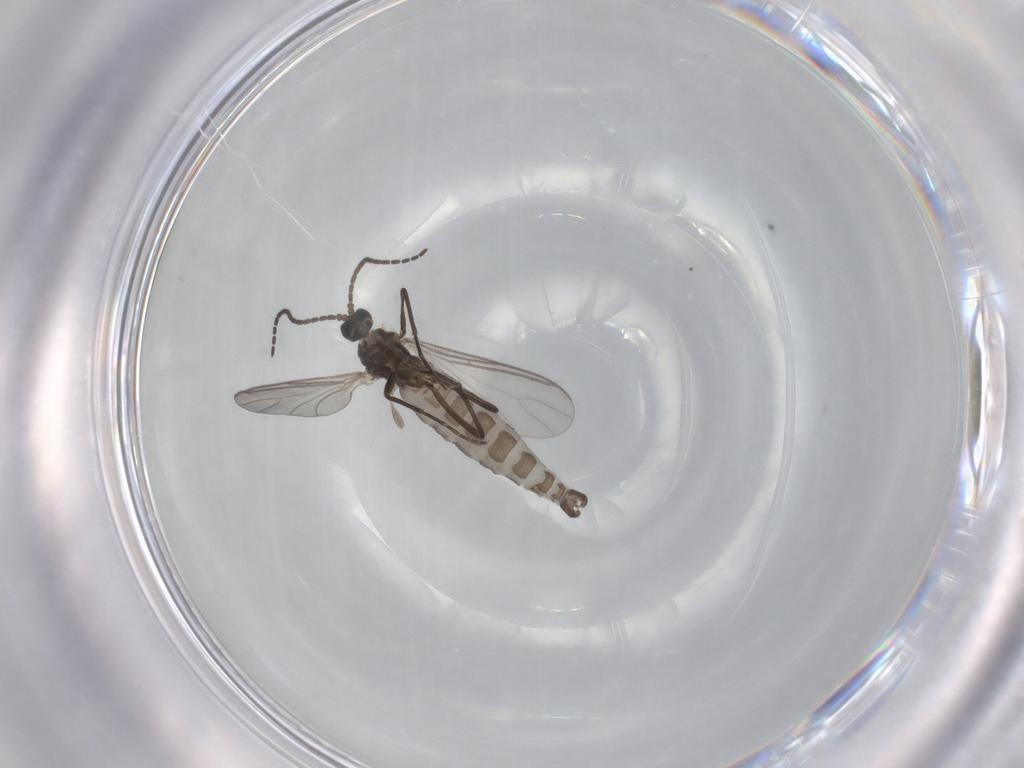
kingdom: Animalia
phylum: Arthropoda
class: Insecta
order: Diptera
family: Sciaridae
